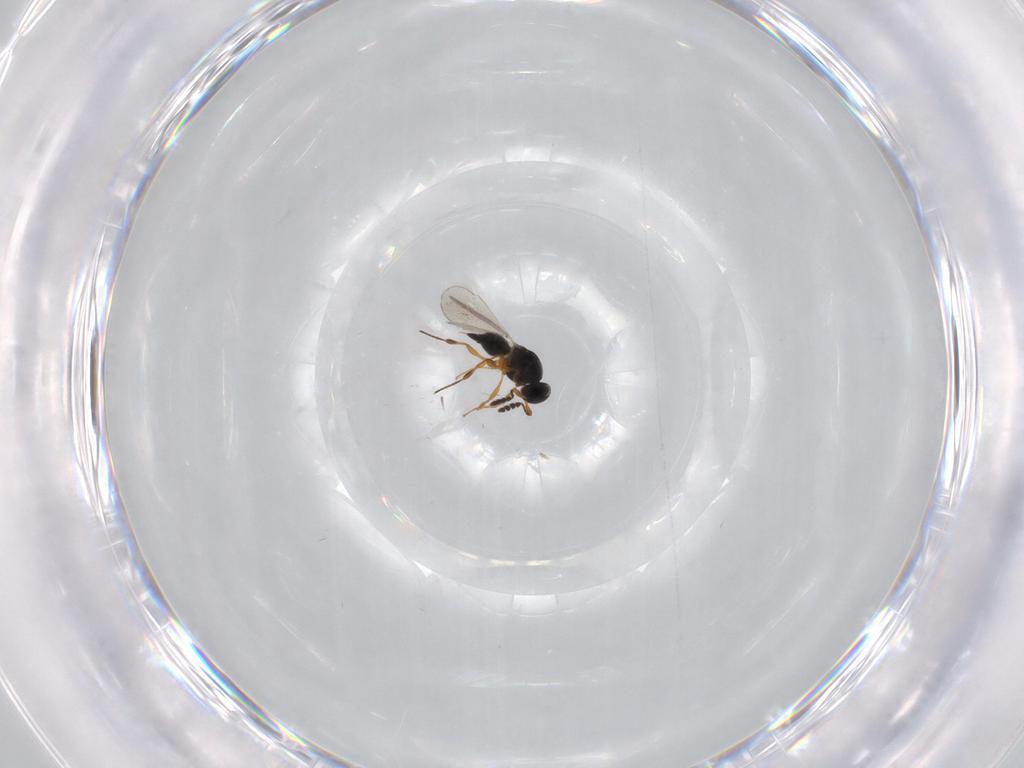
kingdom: Animalia
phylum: Arthropoda
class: Insecta
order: Hymenoptera
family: Platygastridae
